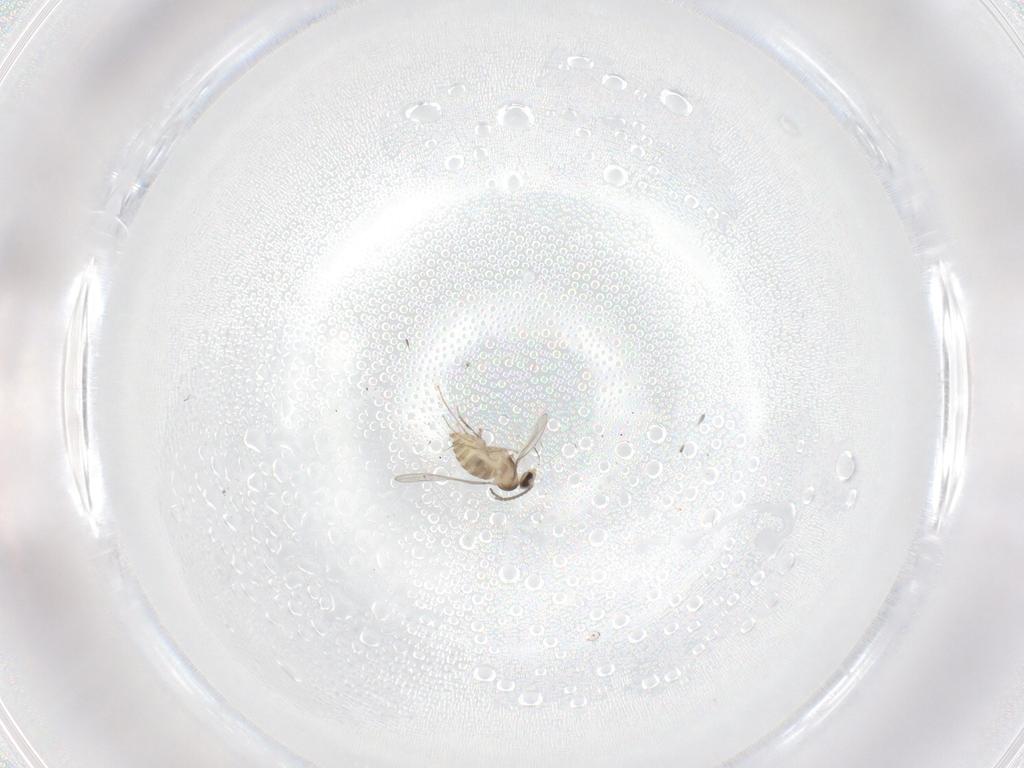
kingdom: Animalia
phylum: Arthropoda
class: Insecta
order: Diptera
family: Cecidomyiidae
